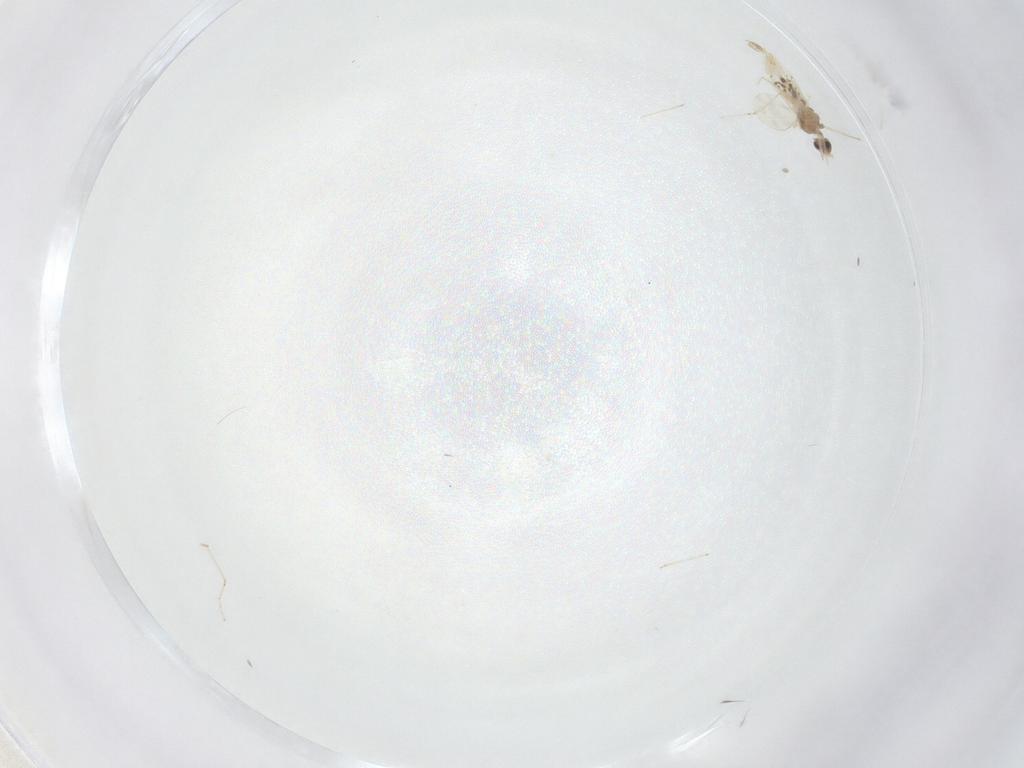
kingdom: Animalia
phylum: Arthropoda
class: Insecta
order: Diptera
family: Cecidomyiidae
